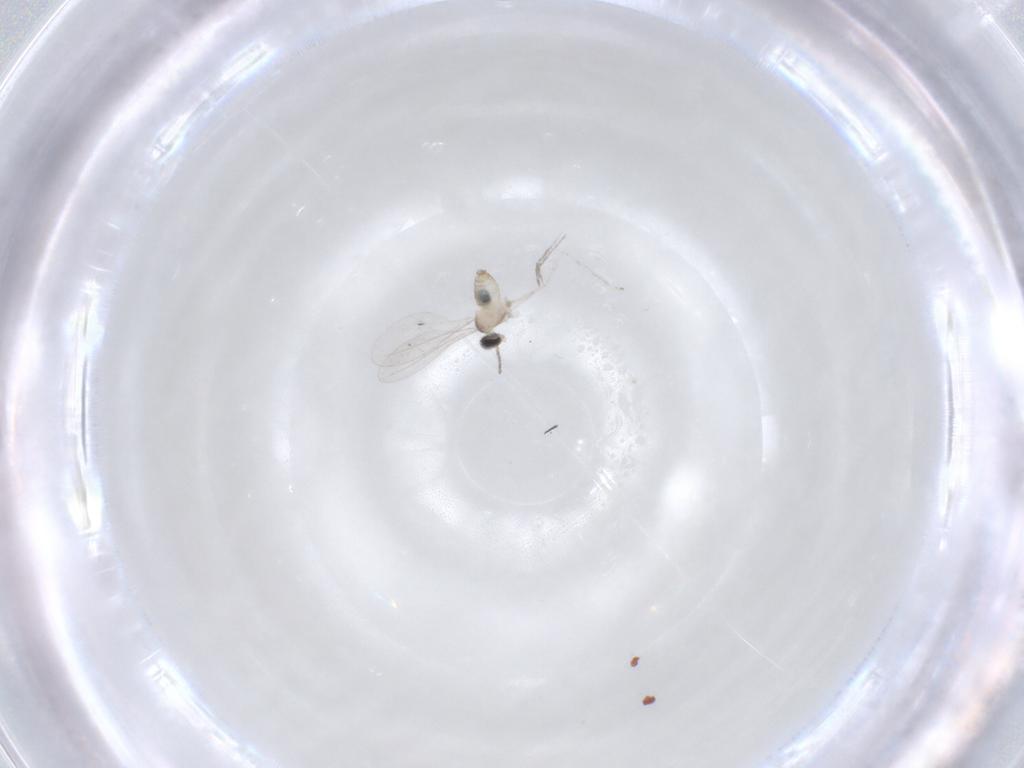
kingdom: Animalia
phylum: Arthropoda
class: Insecta
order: Diptera
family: Cecidomyiidae
